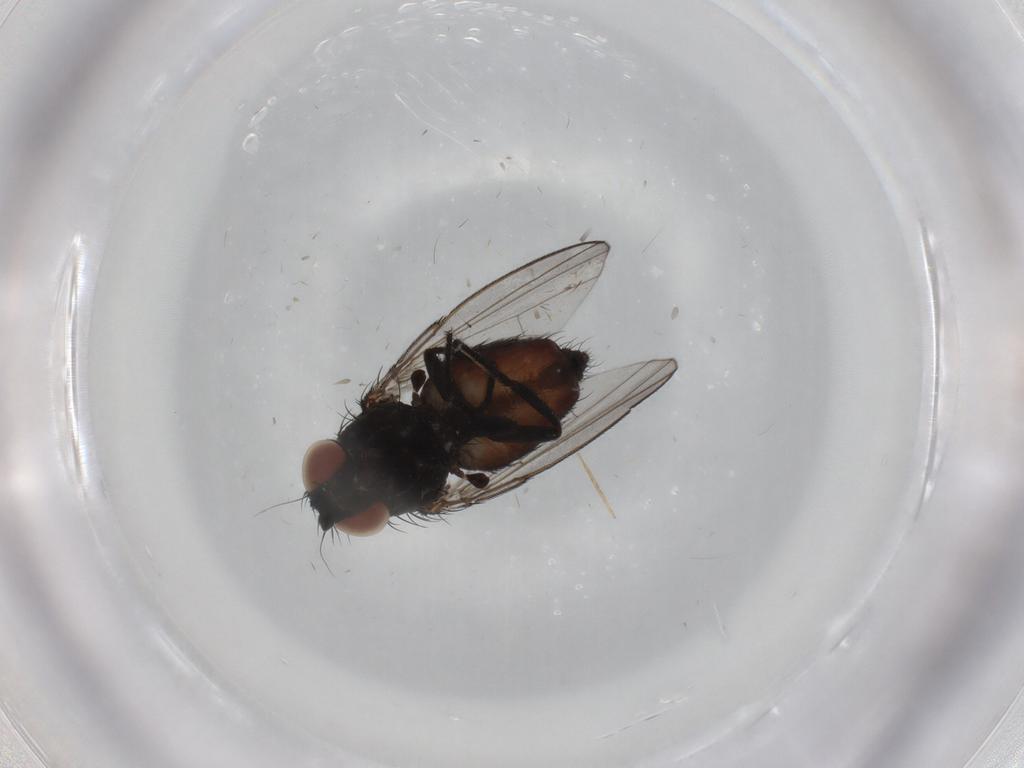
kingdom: Animalia
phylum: Arthropoda
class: Insecta
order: Diptera
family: Milichiidae
